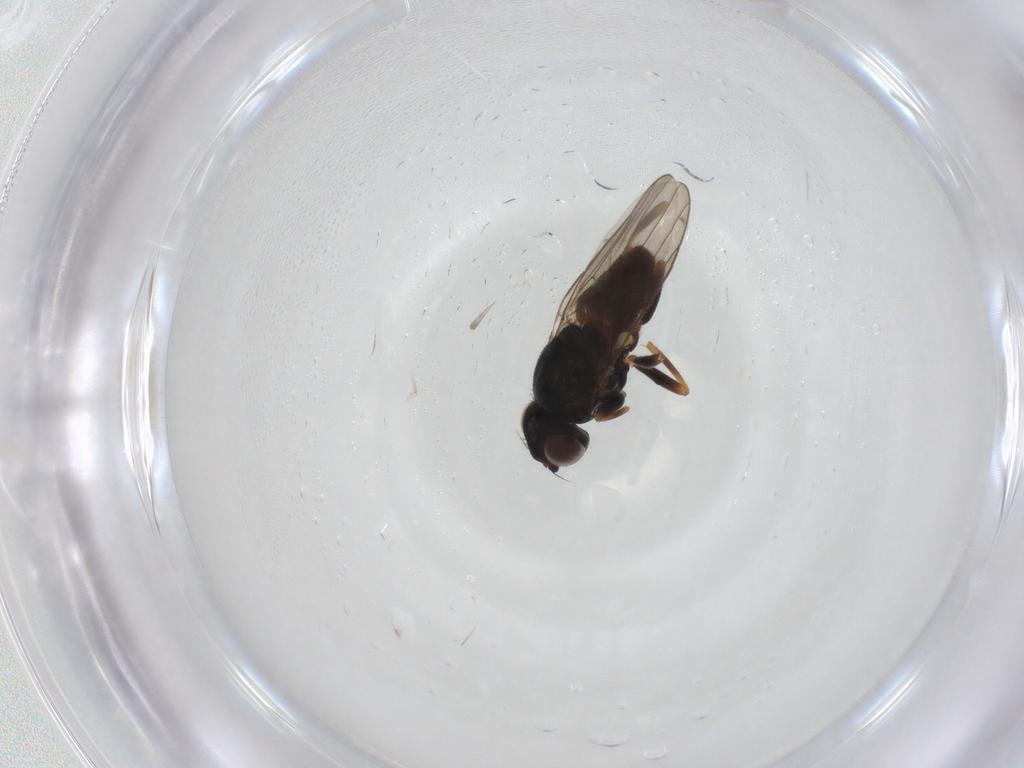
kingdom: Animalia
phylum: Arthropoda
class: Insecta
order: Diptera
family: Chloropidae
